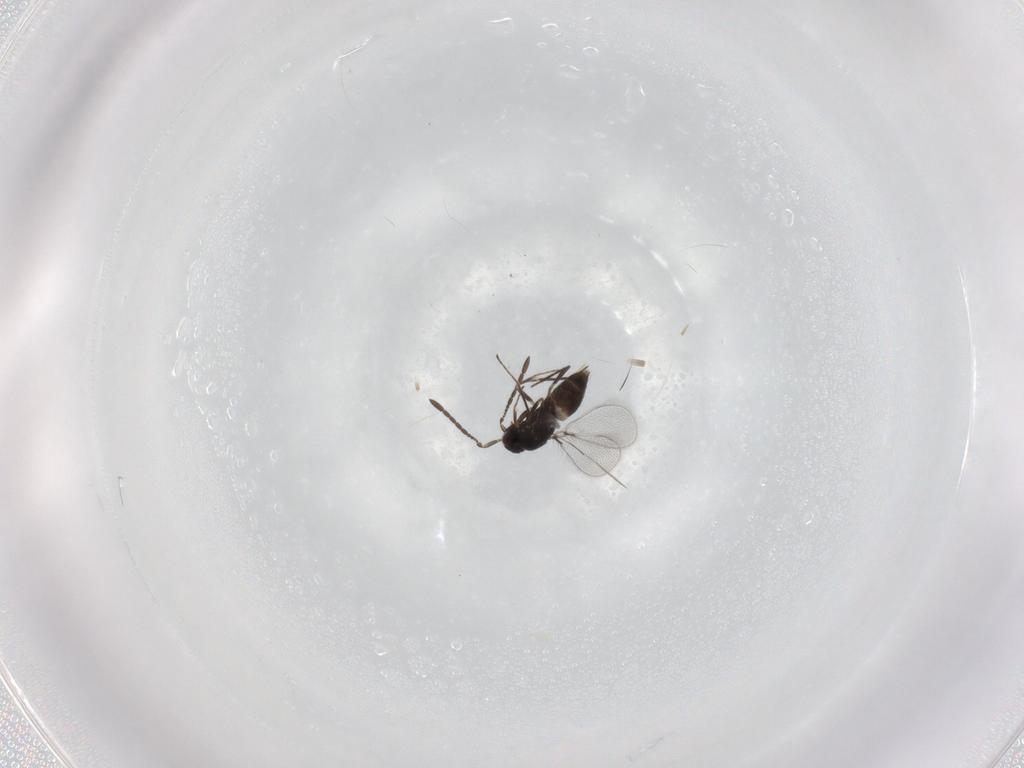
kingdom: Animalia
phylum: Arthropoda
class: Insecta
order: Hymenoptera
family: Mymaridae
